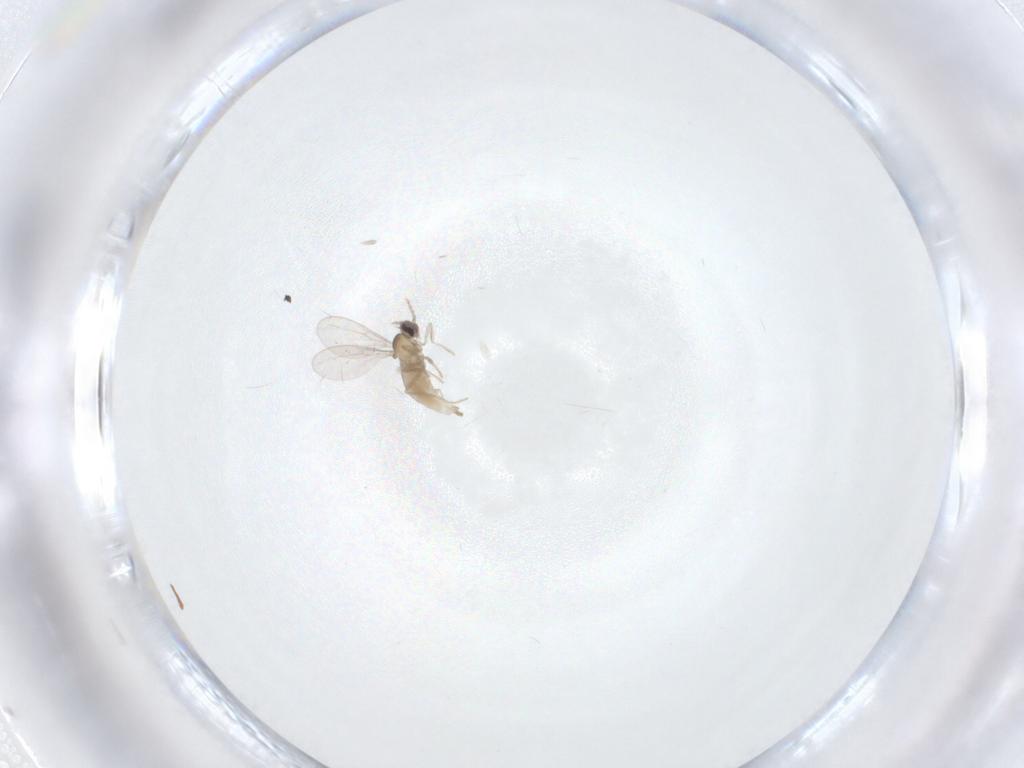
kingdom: Animalia
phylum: Arthropoda
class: Insecta
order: Diptera
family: Cecidomyiidae
